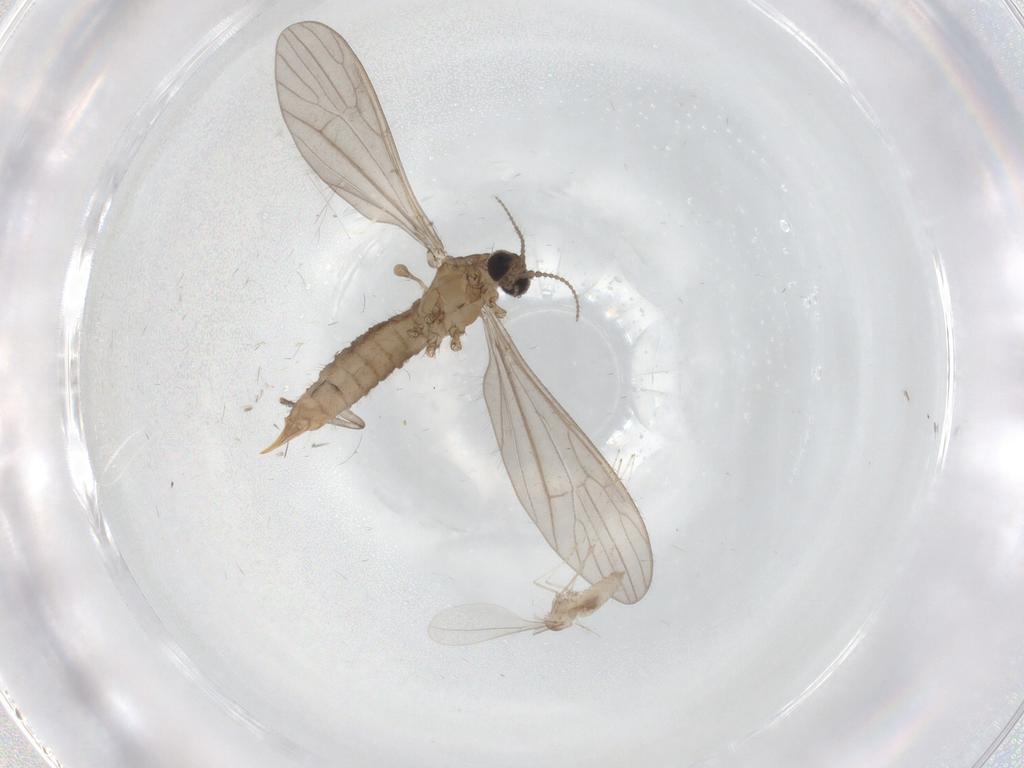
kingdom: Animalia
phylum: Arthropoda
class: Insecta
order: Diptera
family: Cecidomyiidae
